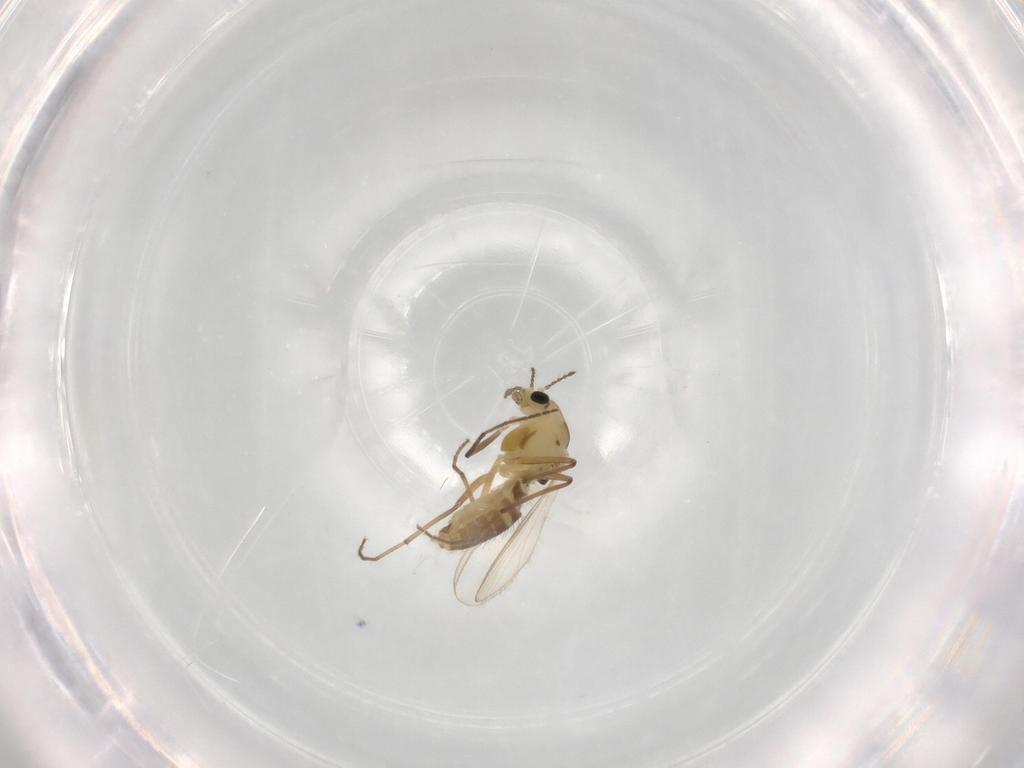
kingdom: Animalia
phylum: Arthropoda
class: Insecta
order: Diptera
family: Chironomidae
